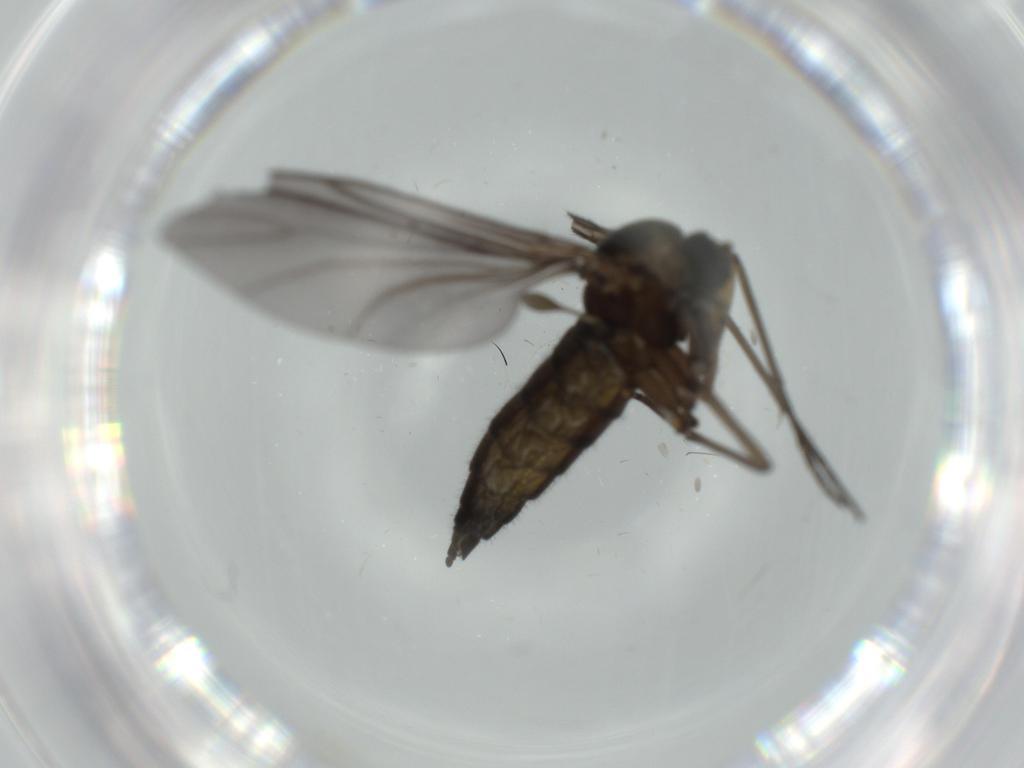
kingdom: Animalia
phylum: Arthropoda
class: Insecta
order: Diptera
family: Sciaridae
